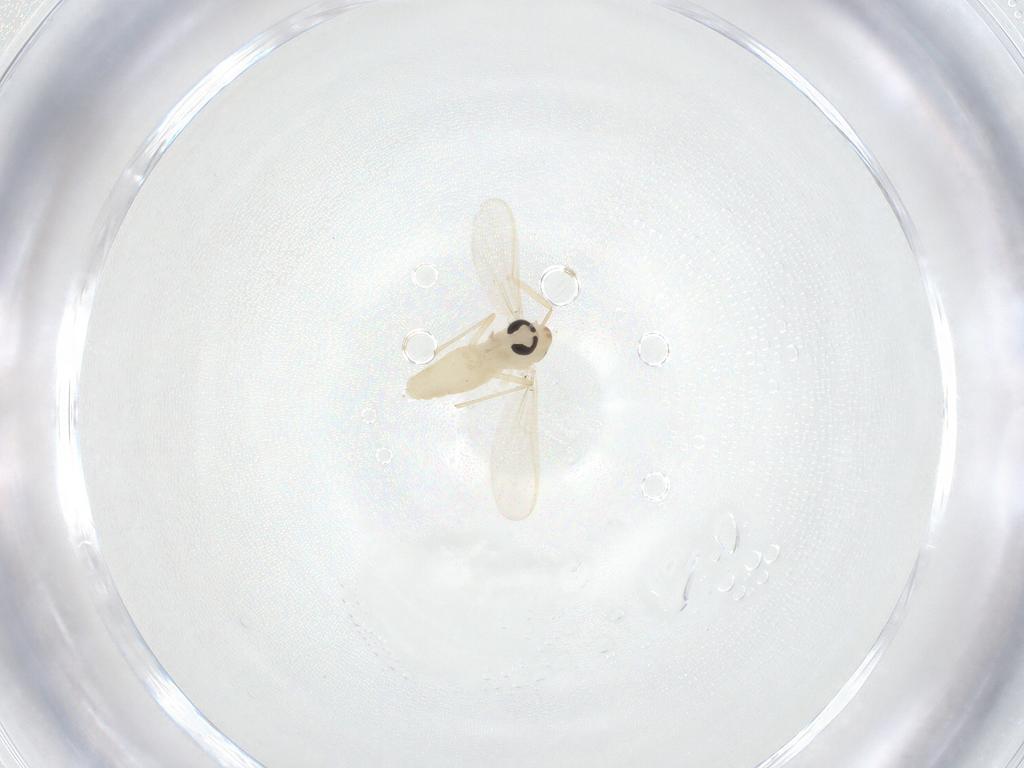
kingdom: Animalia
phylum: Arthropoda
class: Insecta
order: Diptera
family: Chironomidae
